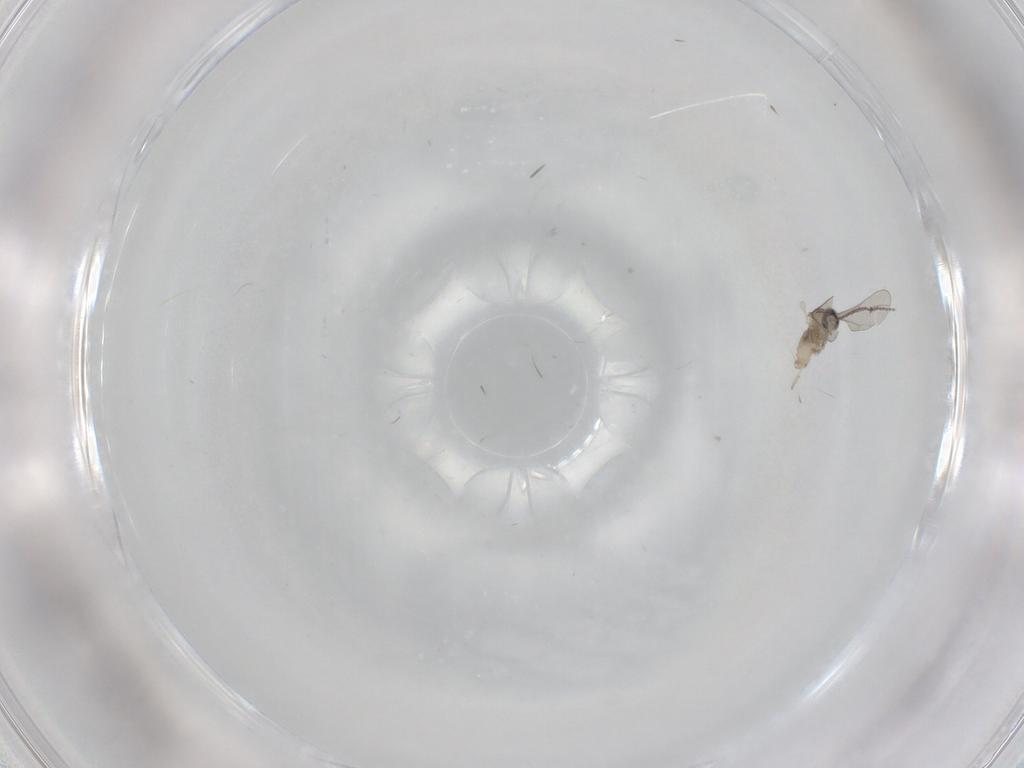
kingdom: Animalia
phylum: Arthropoda
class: Insecta
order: Diptera
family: Cecidomyiidae
